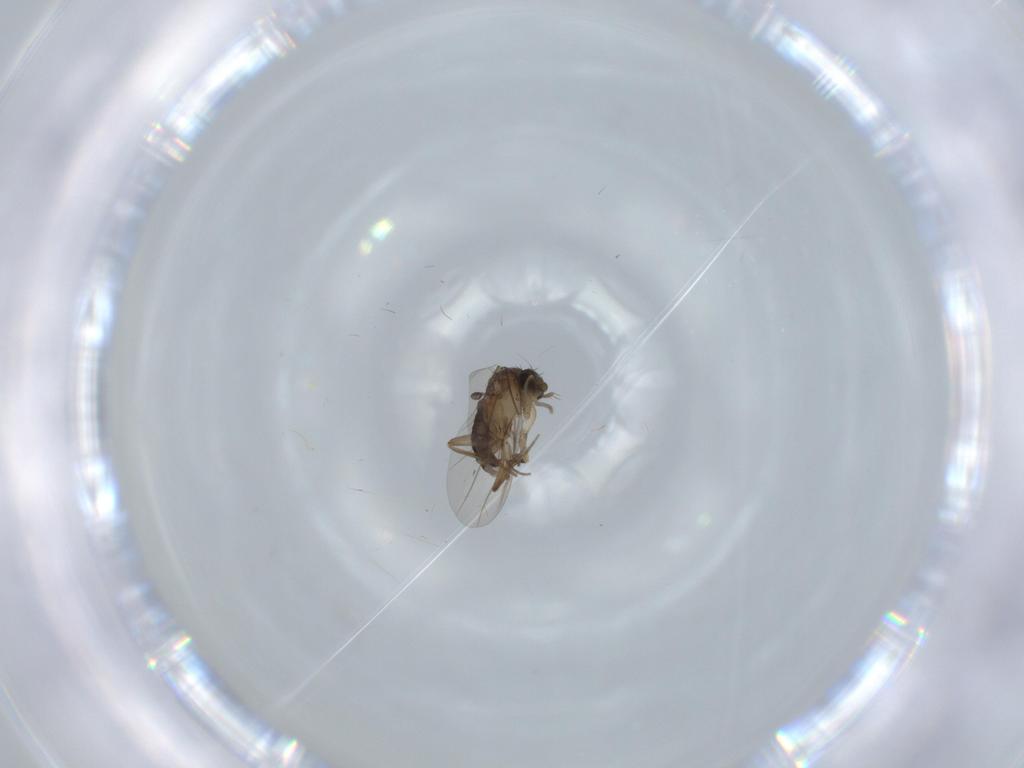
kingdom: Animalia
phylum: Arthropoda
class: Insecta
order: Diptera
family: Phoridae
